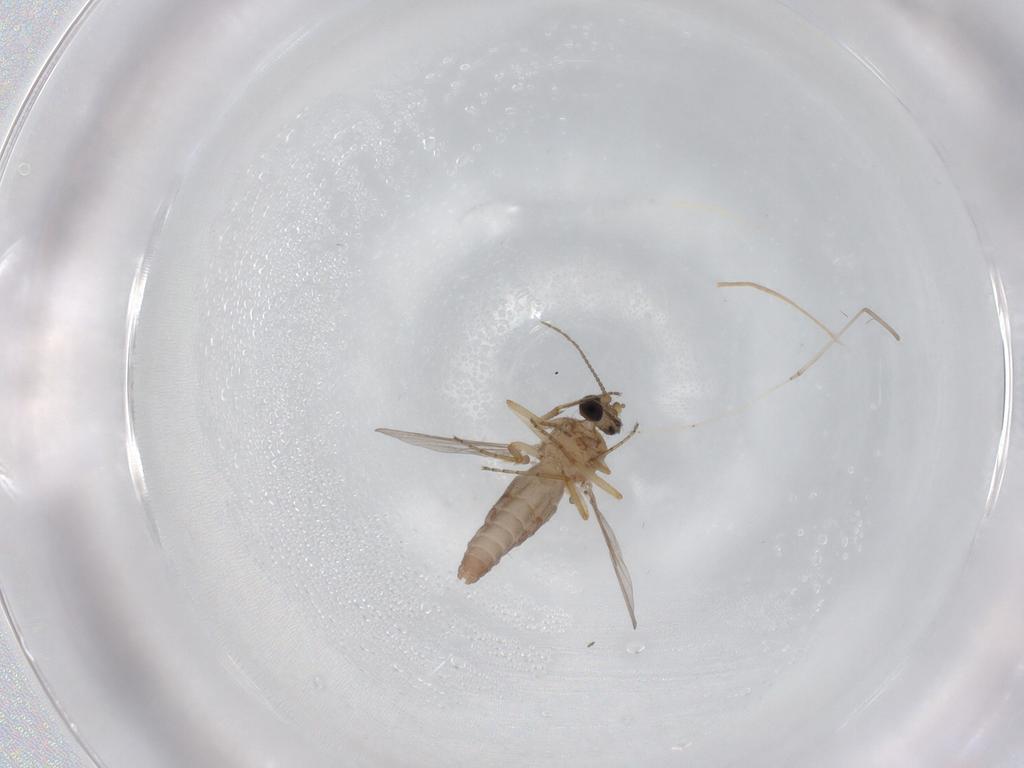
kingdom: Animalia
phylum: Arthropoda
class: Insecta
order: Diptera
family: Ceratopogonidae
